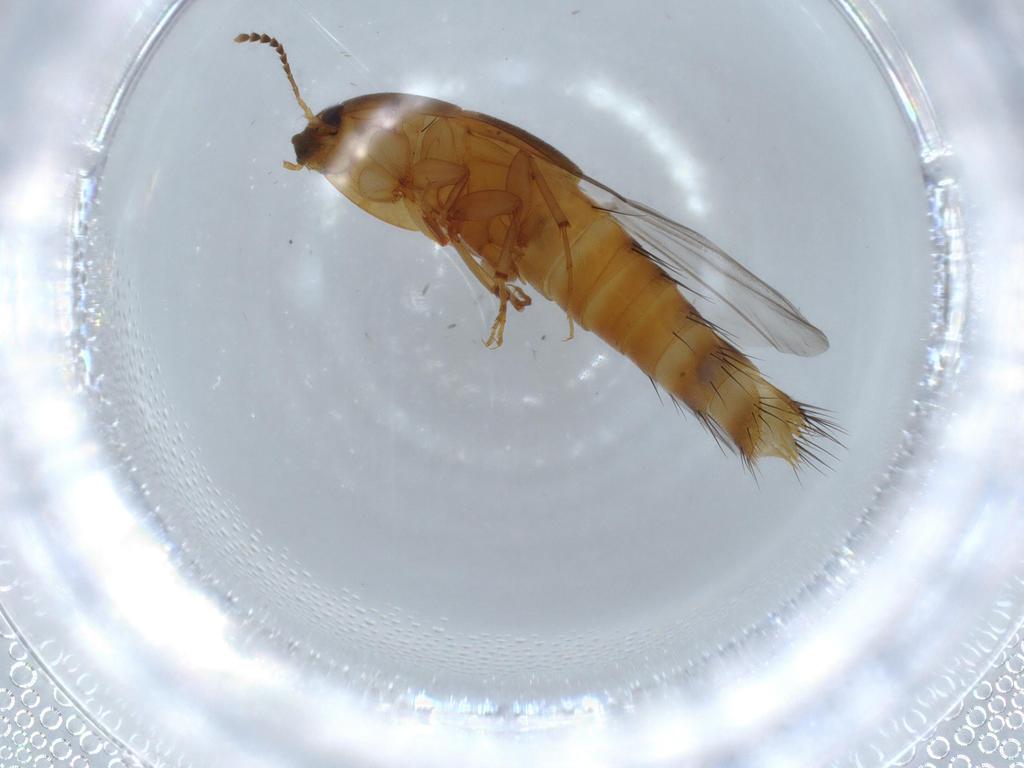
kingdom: Animalia
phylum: Arthropoda
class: Insecta
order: Coleoptera
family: Staphylinidae
